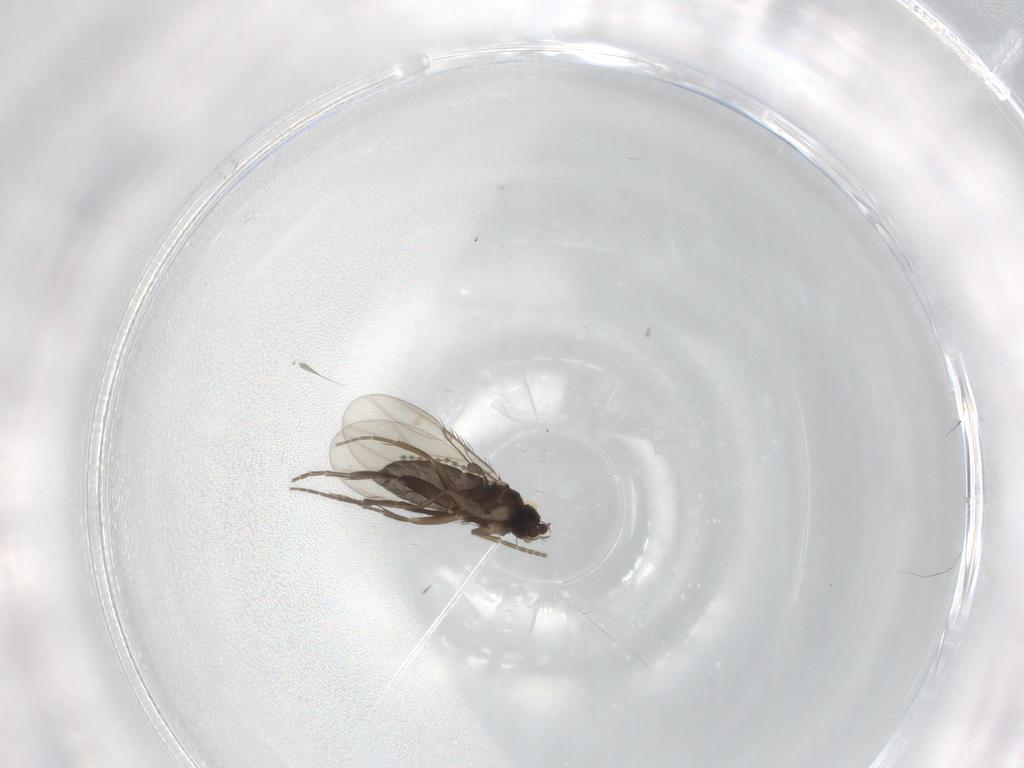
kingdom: Animalia
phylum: Arthropoda
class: Insecta
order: Diptera
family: Phoridae
